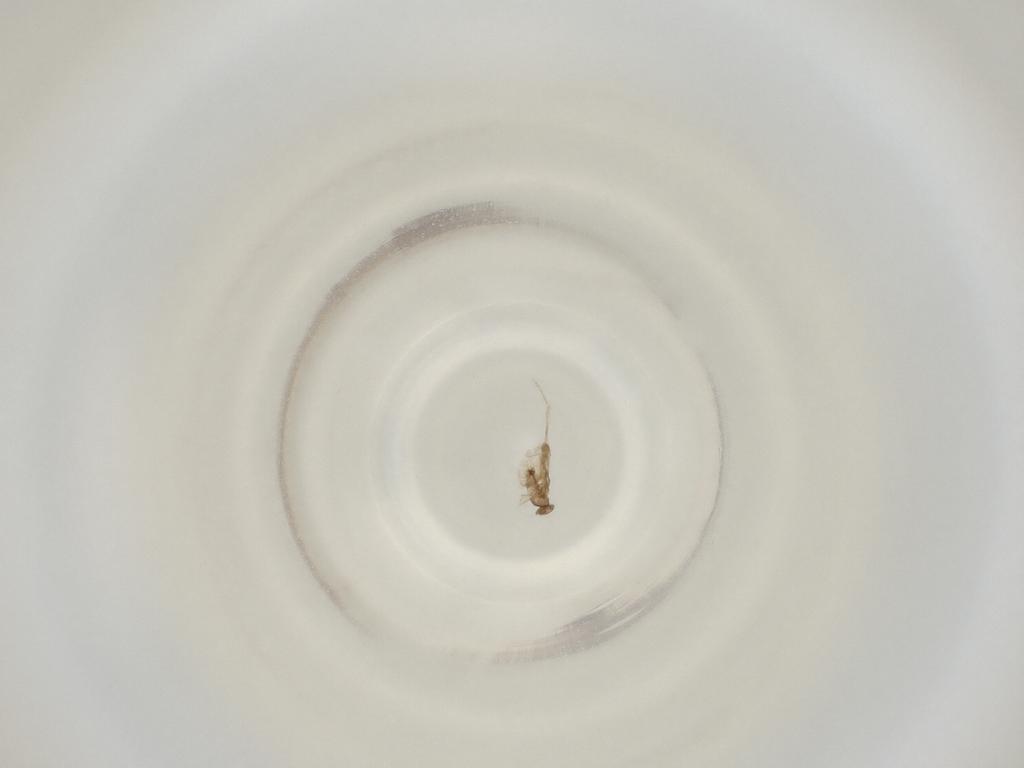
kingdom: Animalia
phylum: Arthropoda
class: Insecta
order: Diptera
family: Cecidomyiidae
